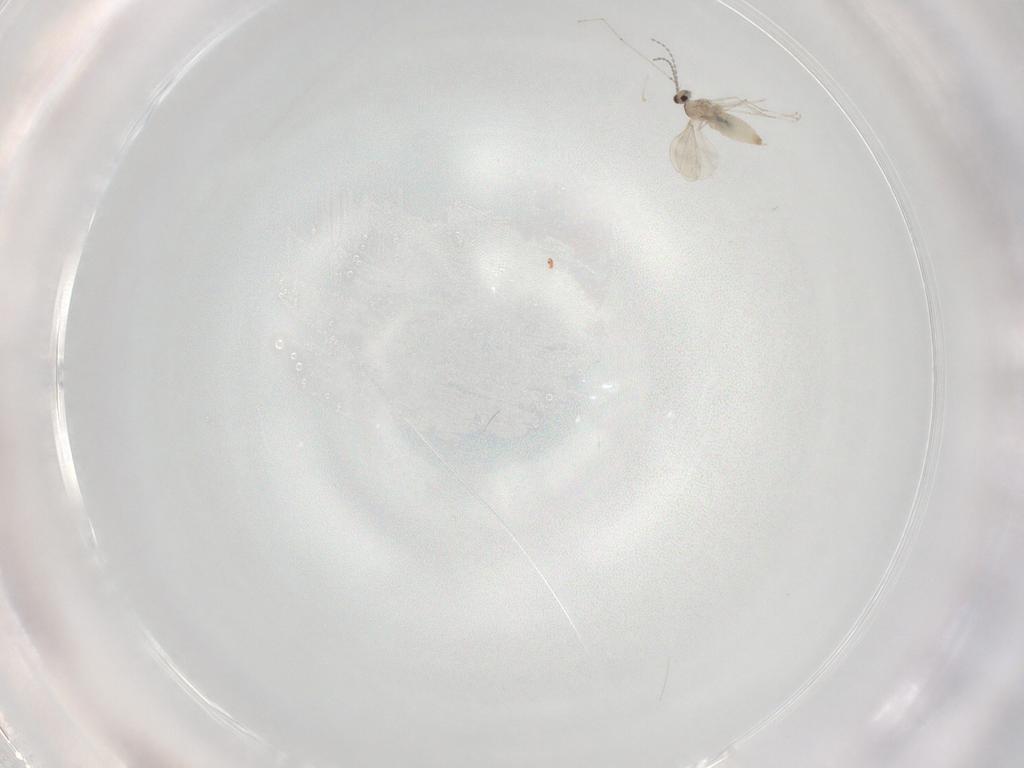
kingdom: Animalia
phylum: Arthropoda
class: Insecta
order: Diptera
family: Cecidomyiidae
